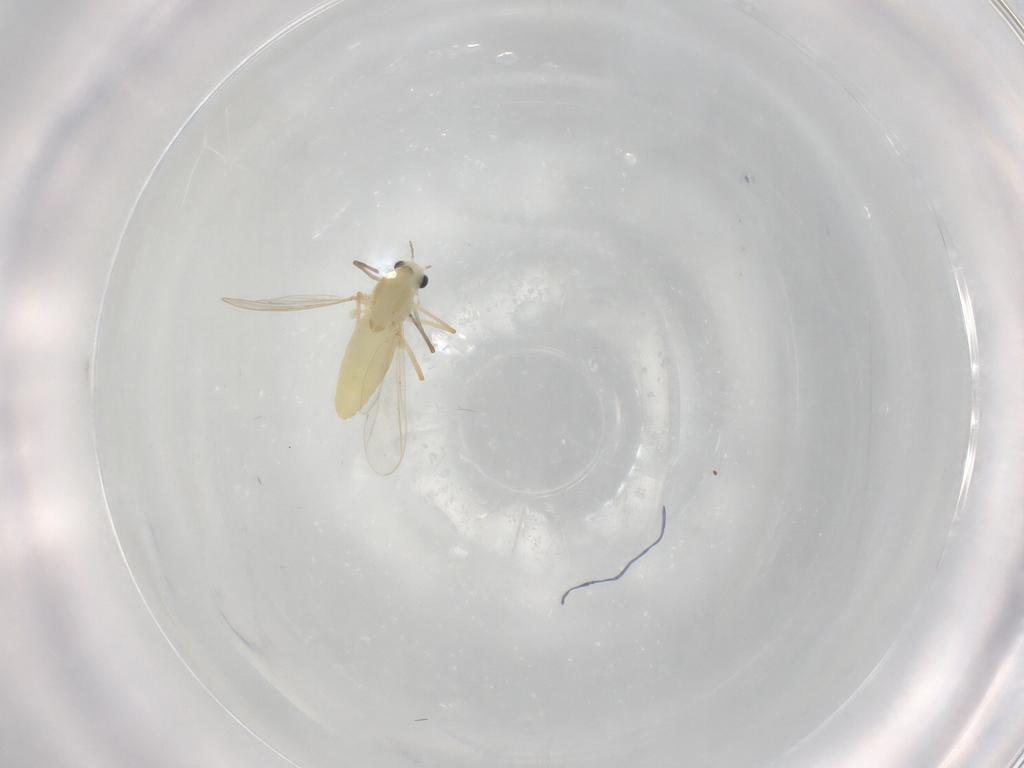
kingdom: Animalia
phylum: Arthropoda
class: Insecta
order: Diptera
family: Chironomidae
